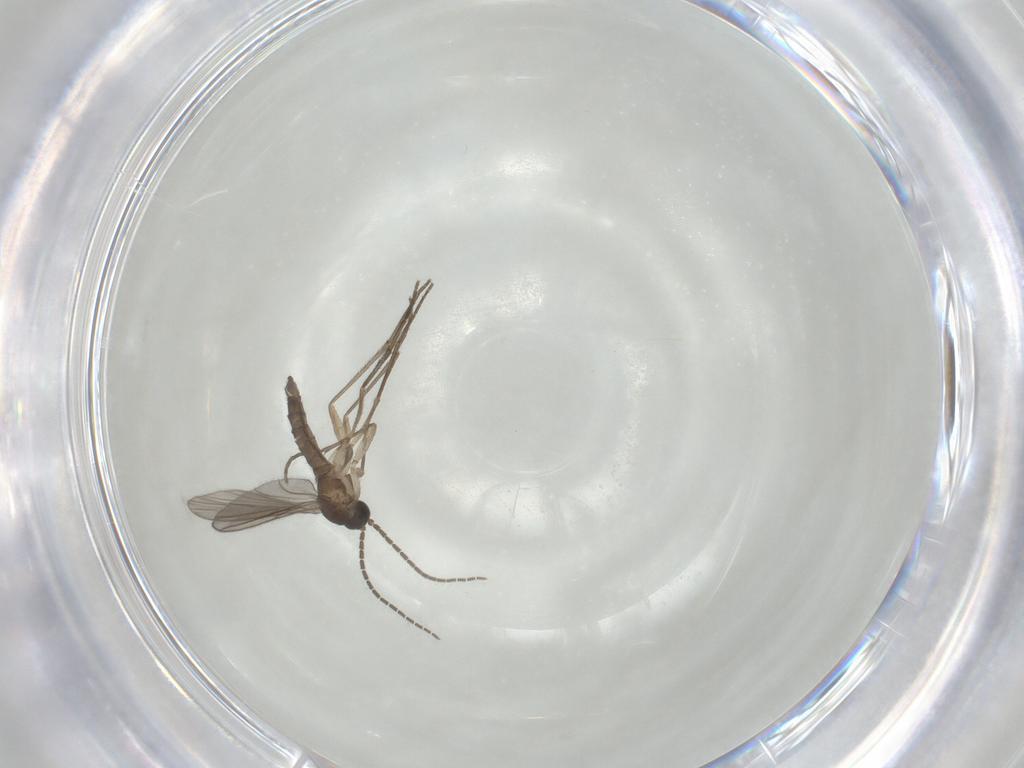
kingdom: Animalia
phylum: Arthropoda
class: Insecta
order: Diptera
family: Sciaridae
